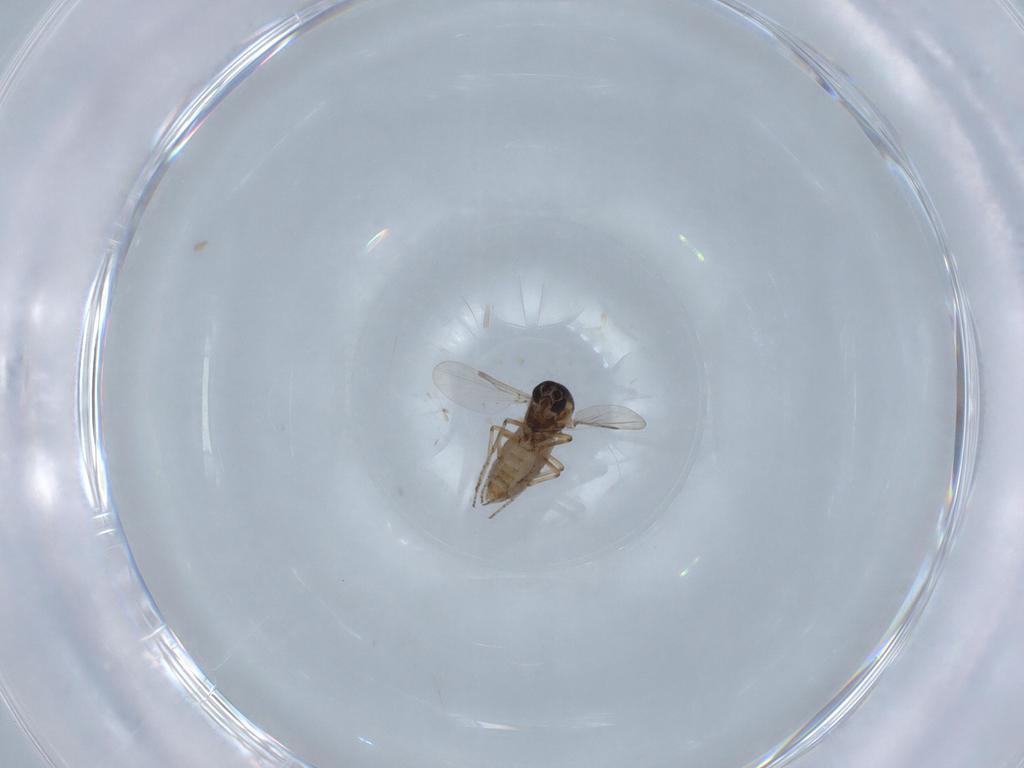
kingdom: Animalia
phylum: Arthropoda
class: Insecta
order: Diptera
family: Ceratopogonidae
